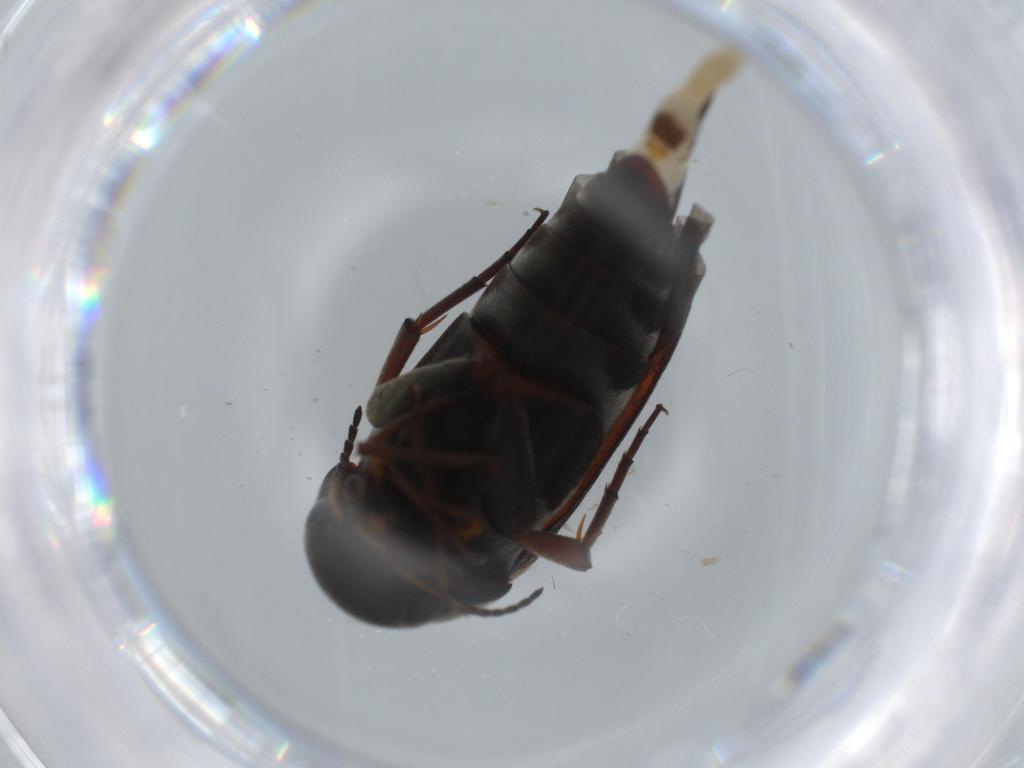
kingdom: Animalia
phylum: Arthropoda
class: Insecta
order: Coleoptera
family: Mordellidae
